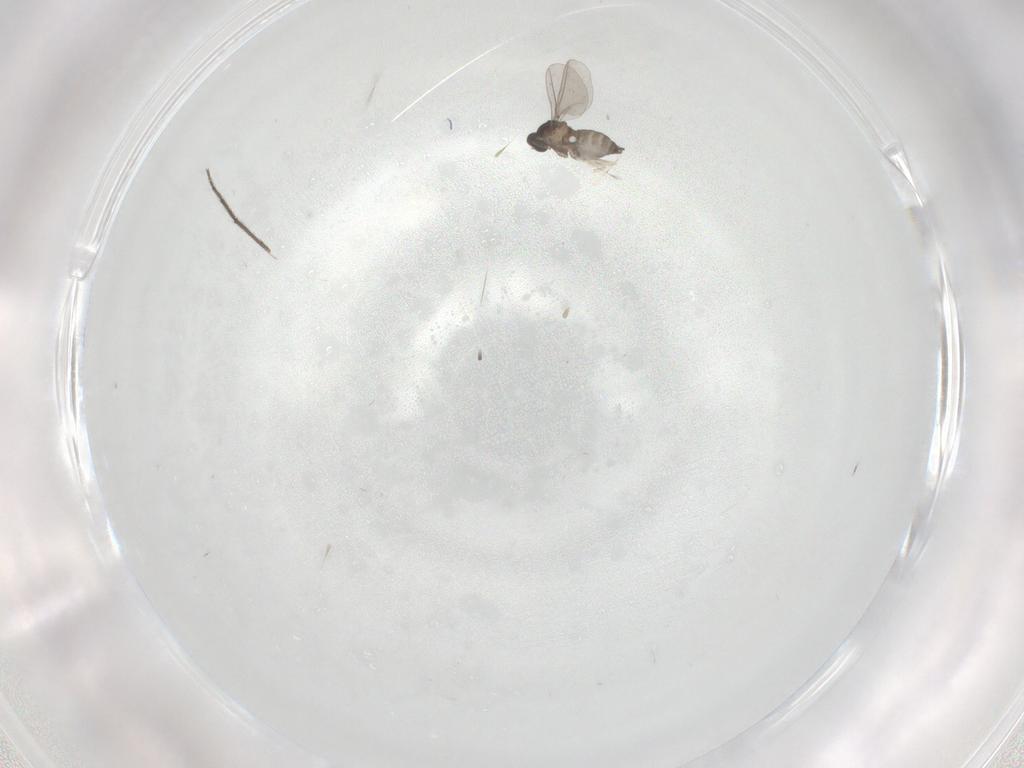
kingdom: Animalia
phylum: Arthropoda
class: Insecta
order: Diptera
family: Chironomidae
